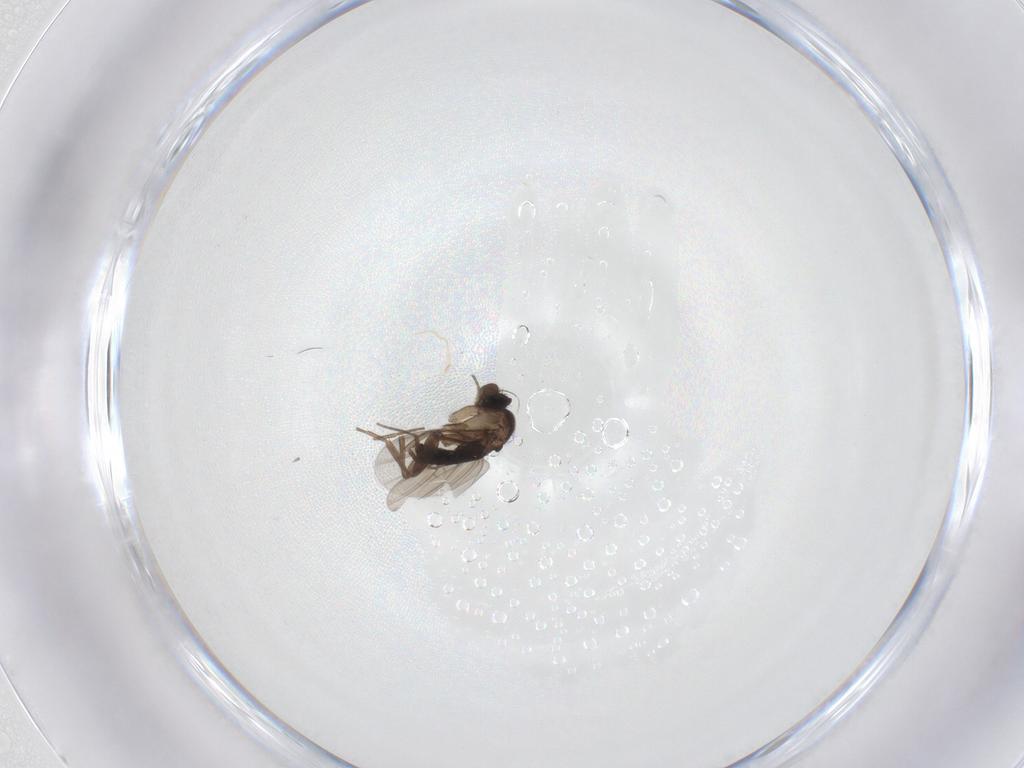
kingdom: Animalia
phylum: Arthropoda
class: Insecta
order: Diptera
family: Phoridae
